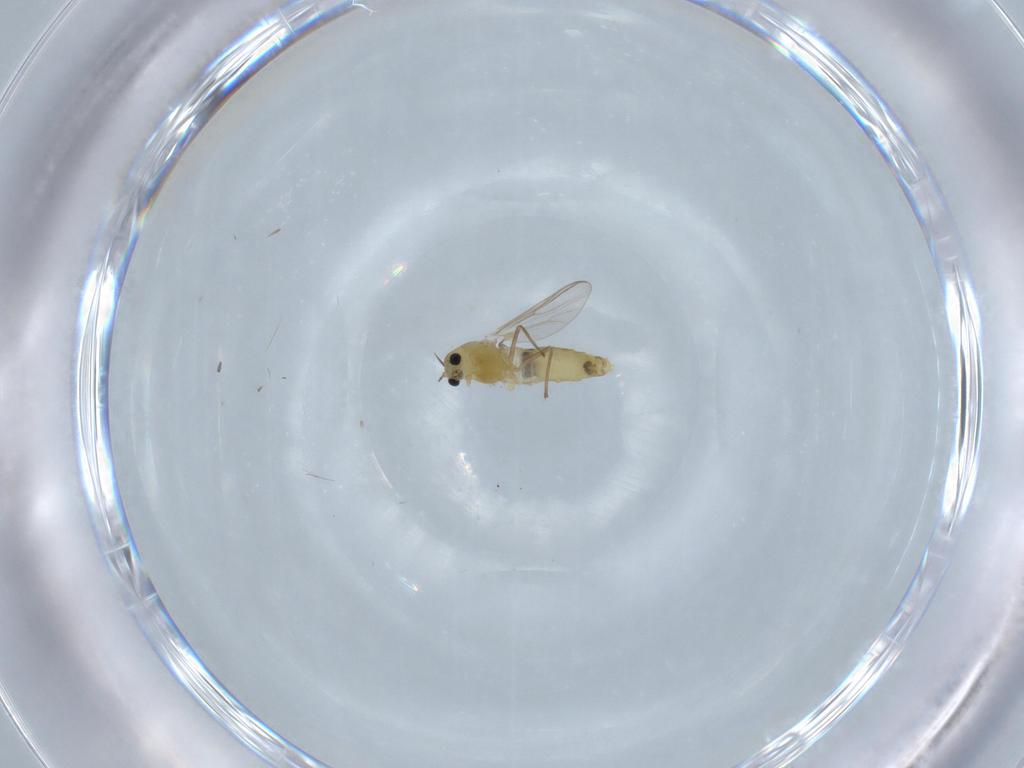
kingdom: Animalia
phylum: Arthropoda
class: Insecta
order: Diptera
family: Chironomidae
